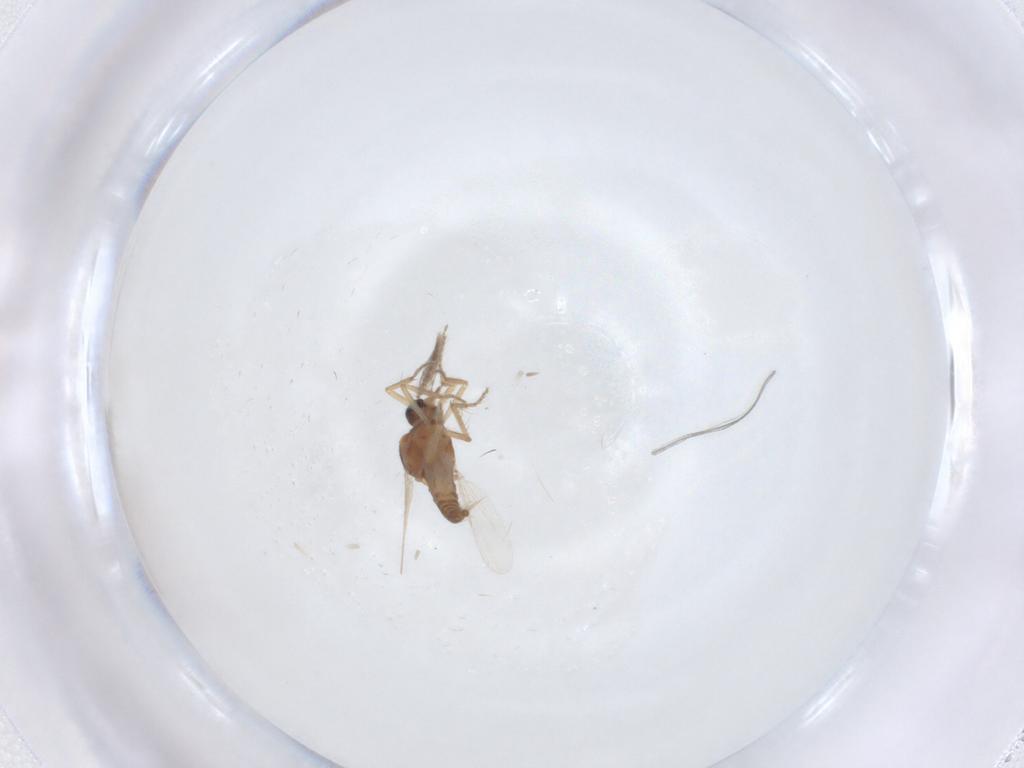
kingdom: Animalia
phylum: Arthropoda
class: Insecta
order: Diptera
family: Ceratopogonidae
